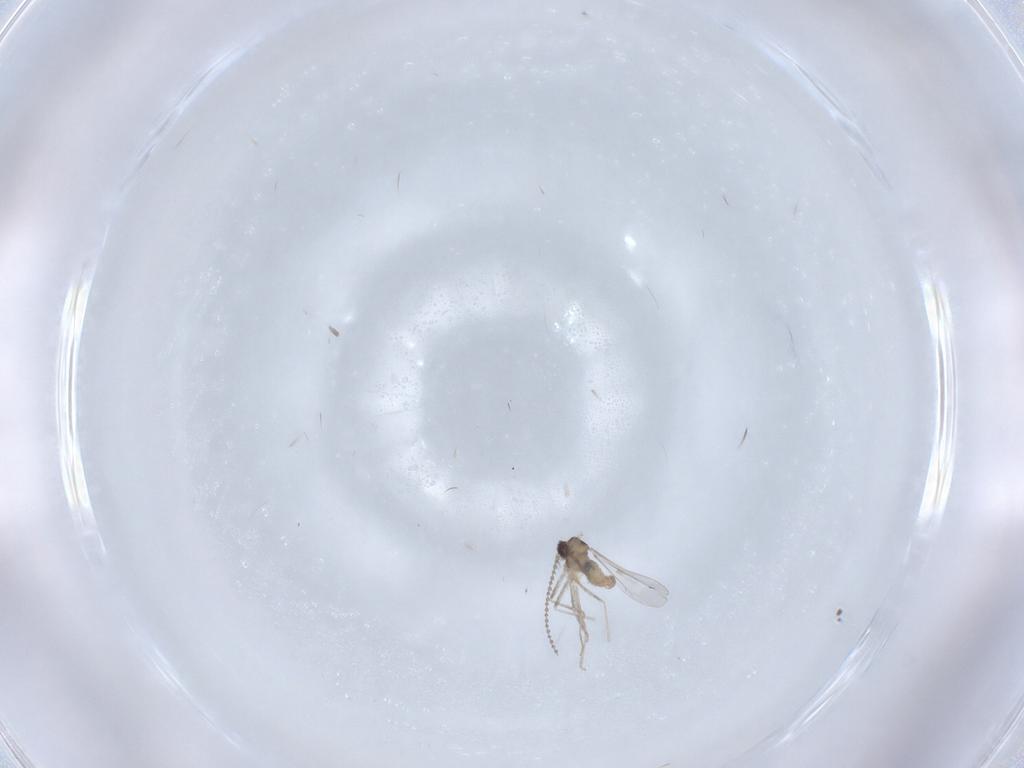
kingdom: Animalia
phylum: Arthropoda
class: Insecta
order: Diptera
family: Cecidomyiidae
